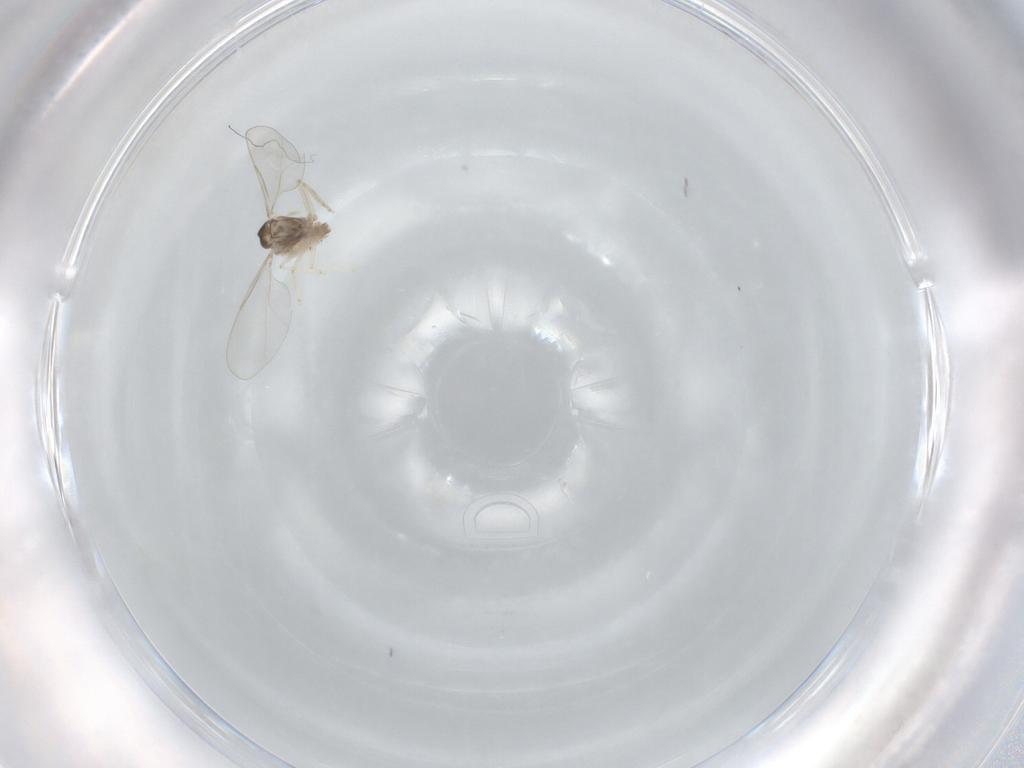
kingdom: Animalia
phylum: Arthropoda
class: Insecta
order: Diptera
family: Cecidomyiidae
